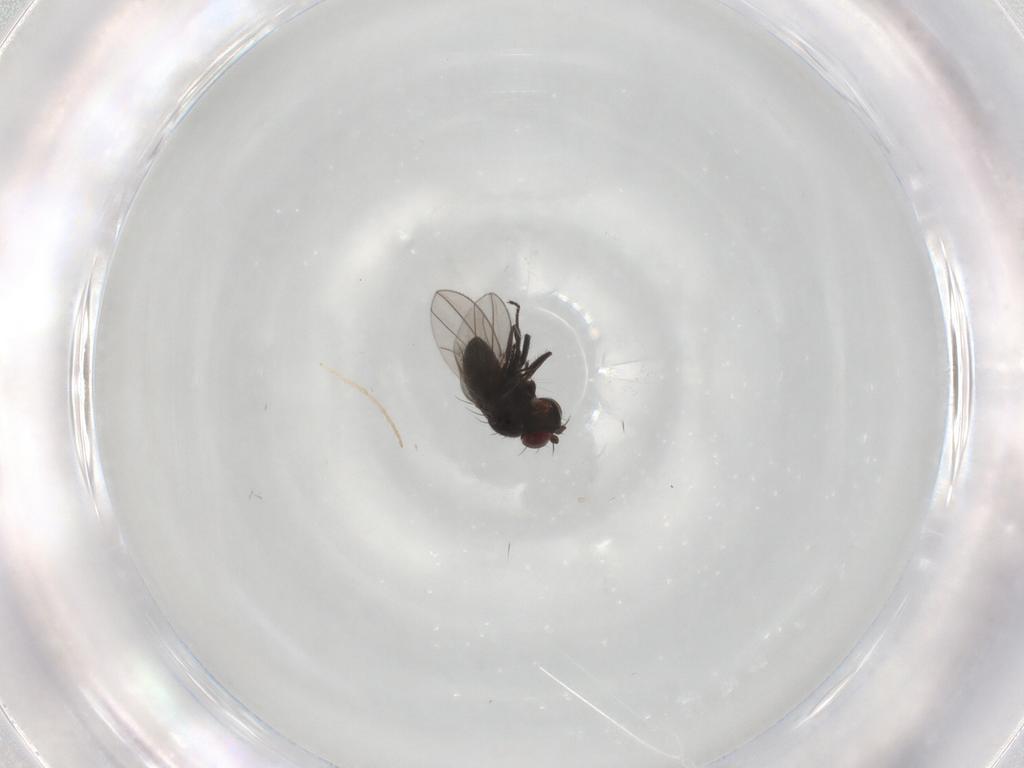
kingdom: Animalia
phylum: Arthropoda
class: Insecta
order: Diptera
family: Ephydridae
